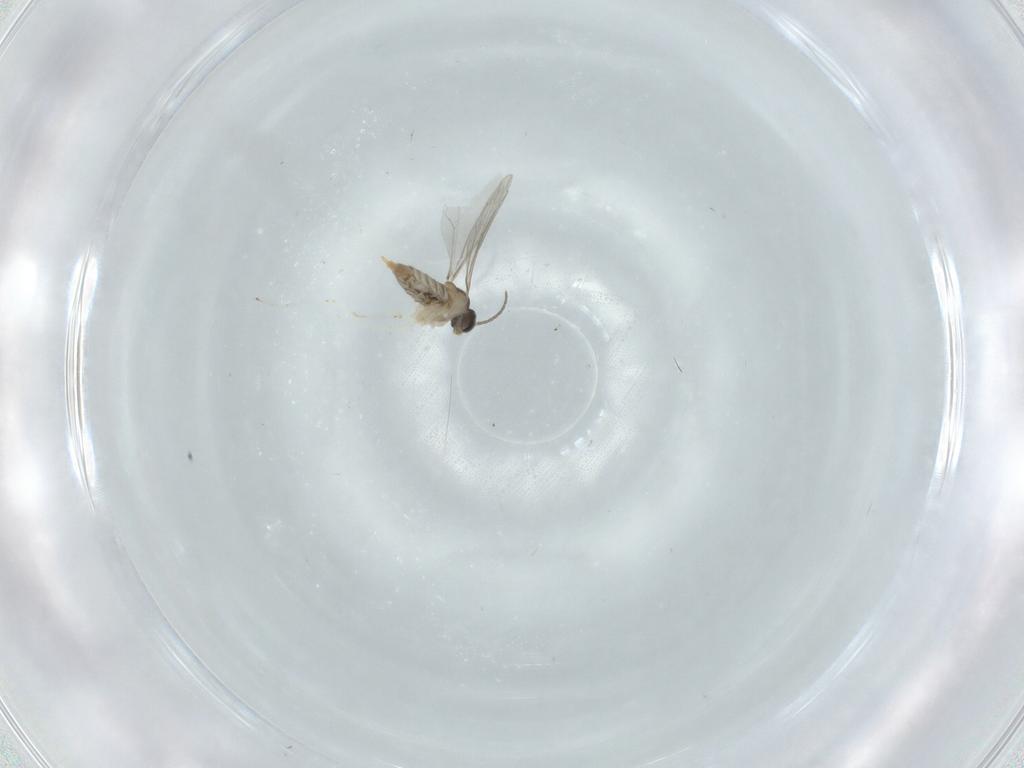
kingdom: Animalia
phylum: Arthropoda
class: Insecta
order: Diptera
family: Cecidomyiidae
